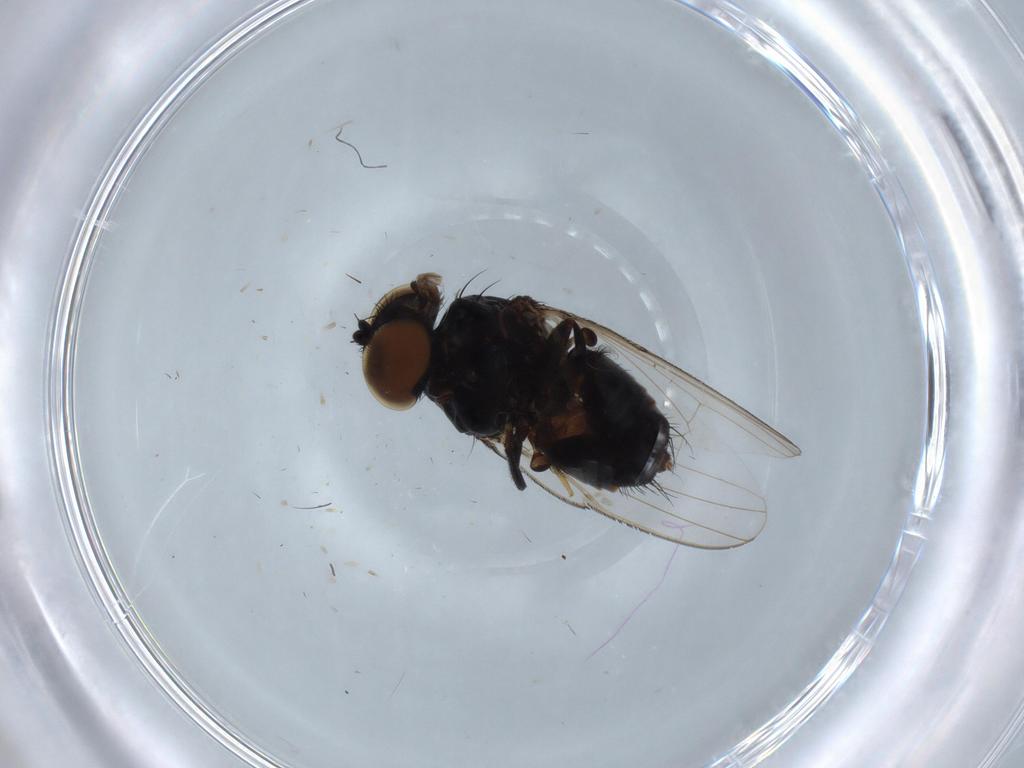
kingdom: Animalia
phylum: Arthropoda
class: Insecta
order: Diptera
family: Milichiidae
